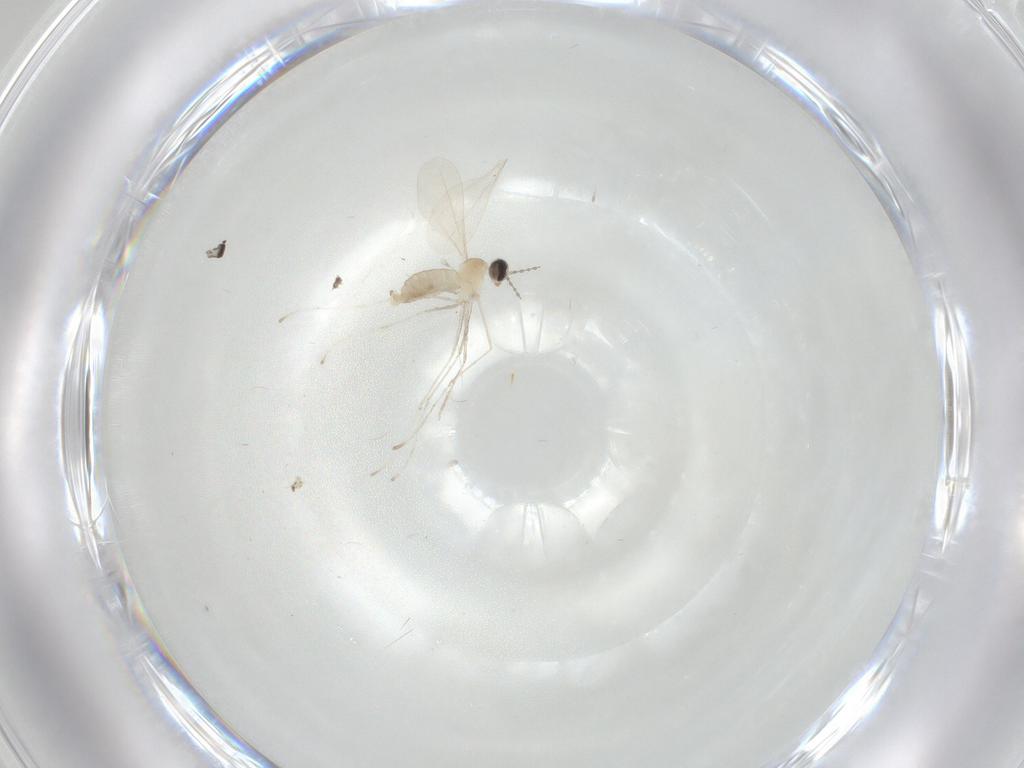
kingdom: Animalia
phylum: Arthropoda
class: Insecta
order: Diptera
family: Cecidomyiidae
